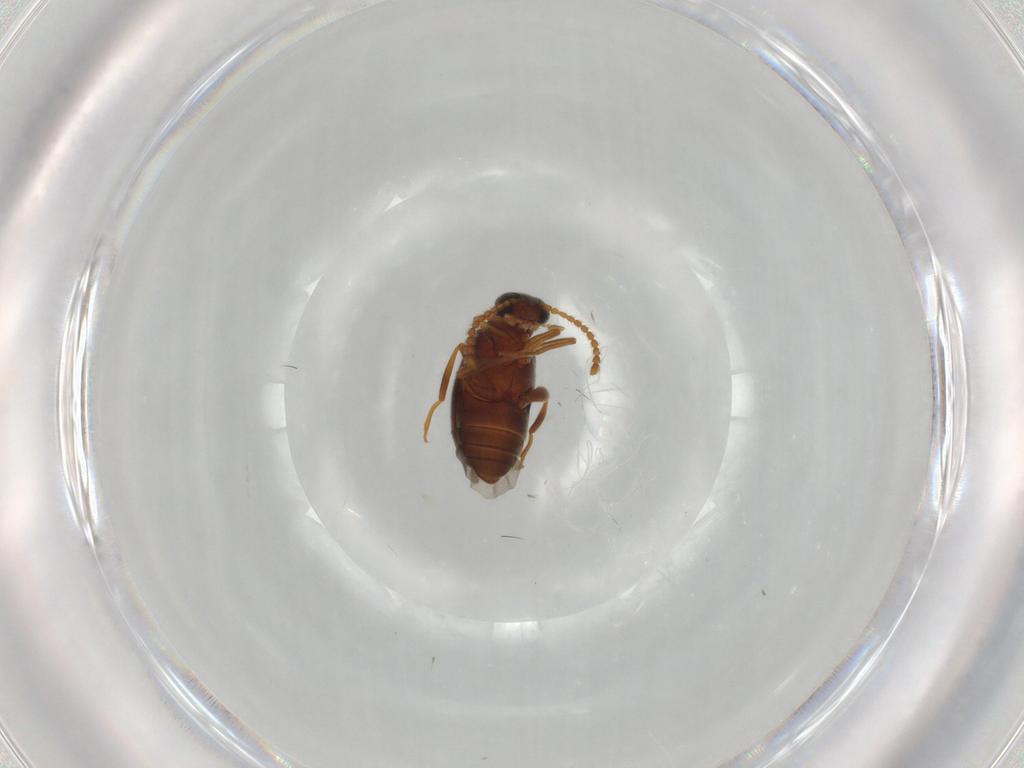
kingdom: Animalia
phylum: Arthropoda
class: Insecta
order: Coleoptera
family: Aderidae
